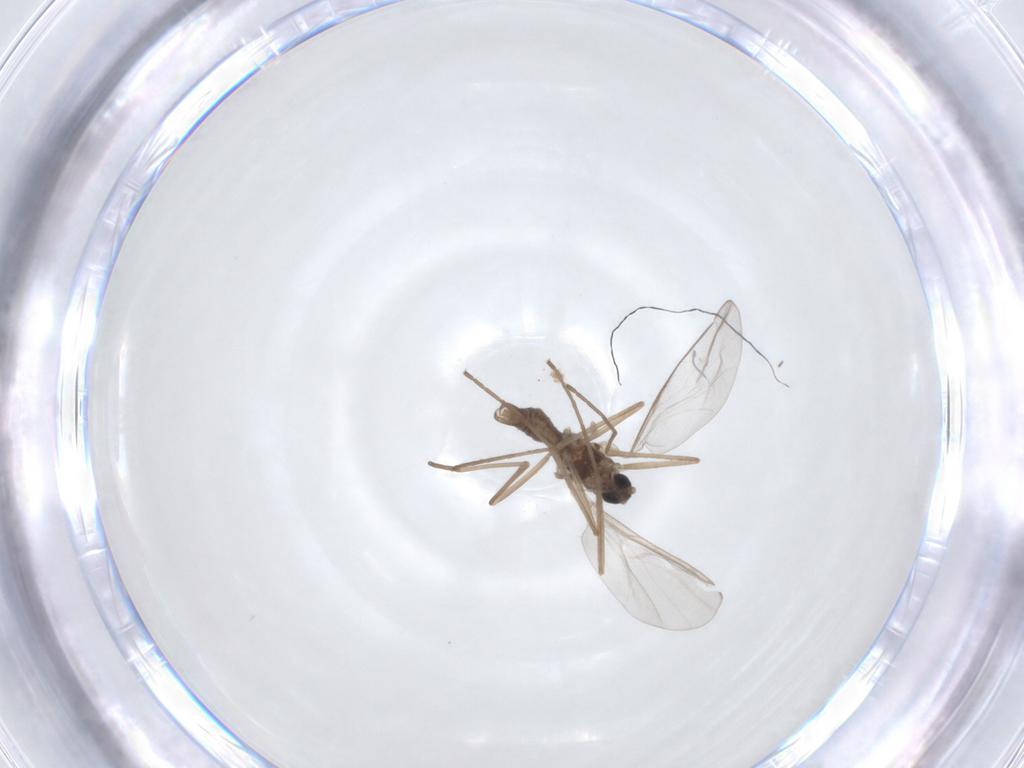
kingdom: Animalia
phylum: Arthropoda
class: Insecta
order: Diptera
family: Cecidomyiidae
